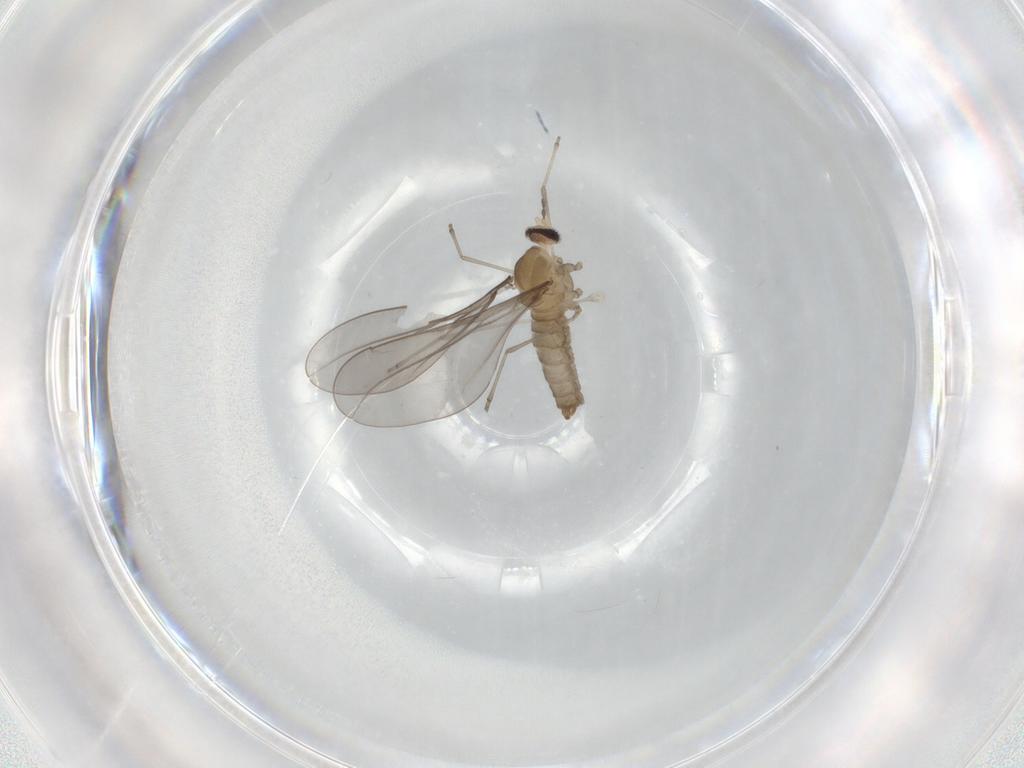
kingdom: Animalia
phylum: Arthropoda
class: Insecta
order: Diptera
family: Cecidomyiidae
